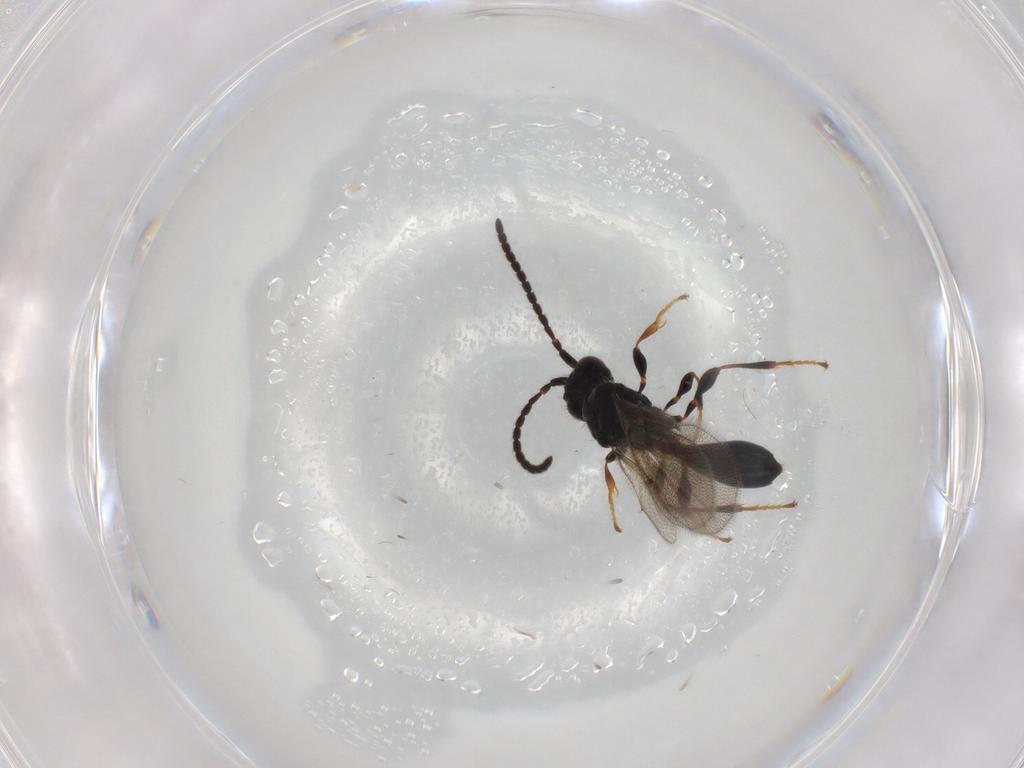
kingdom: Animalia
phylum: Arthropoda
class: Insecta
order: Hymenoptera
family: Diapriidae
